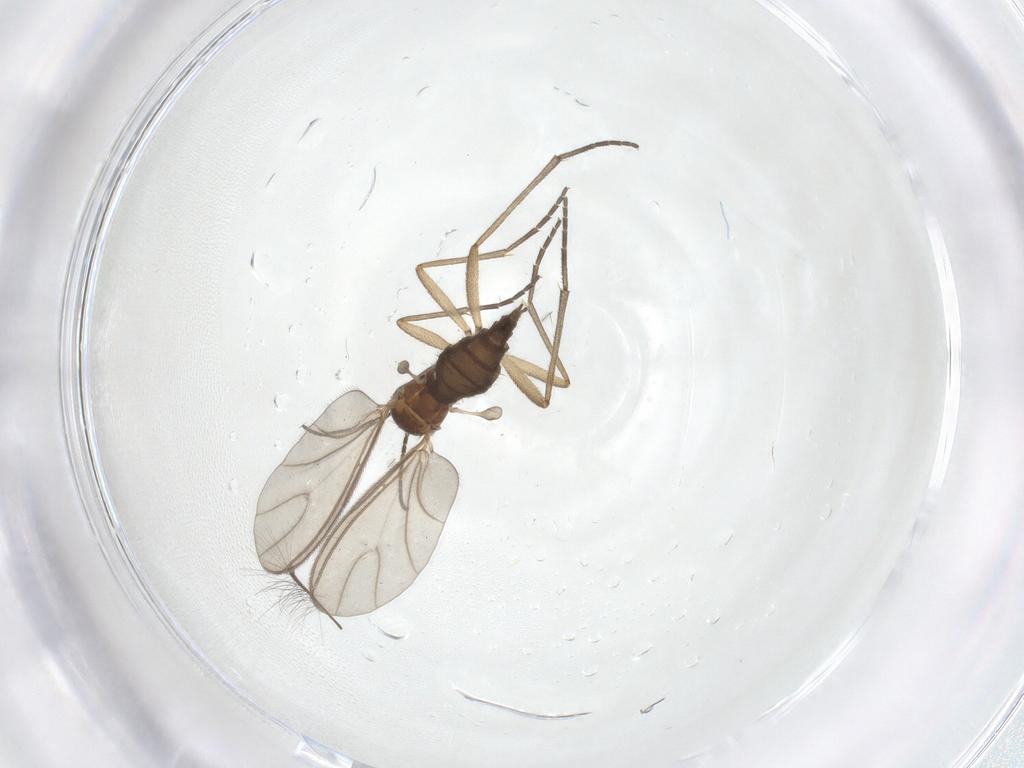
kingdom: Animalia
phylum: Arthropoda
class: Insecta
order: Diptera
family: Sciaridae
